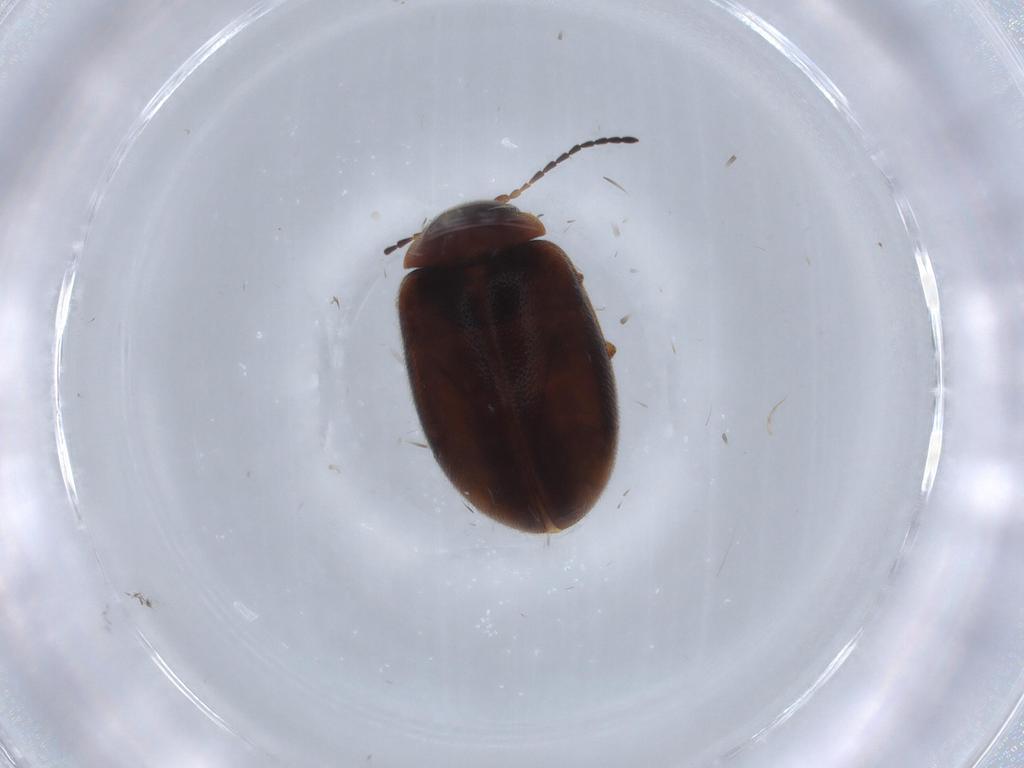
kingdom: Animalia
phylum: Arthropoda
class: Insecta
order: Coleoptera
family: Scirtidae
